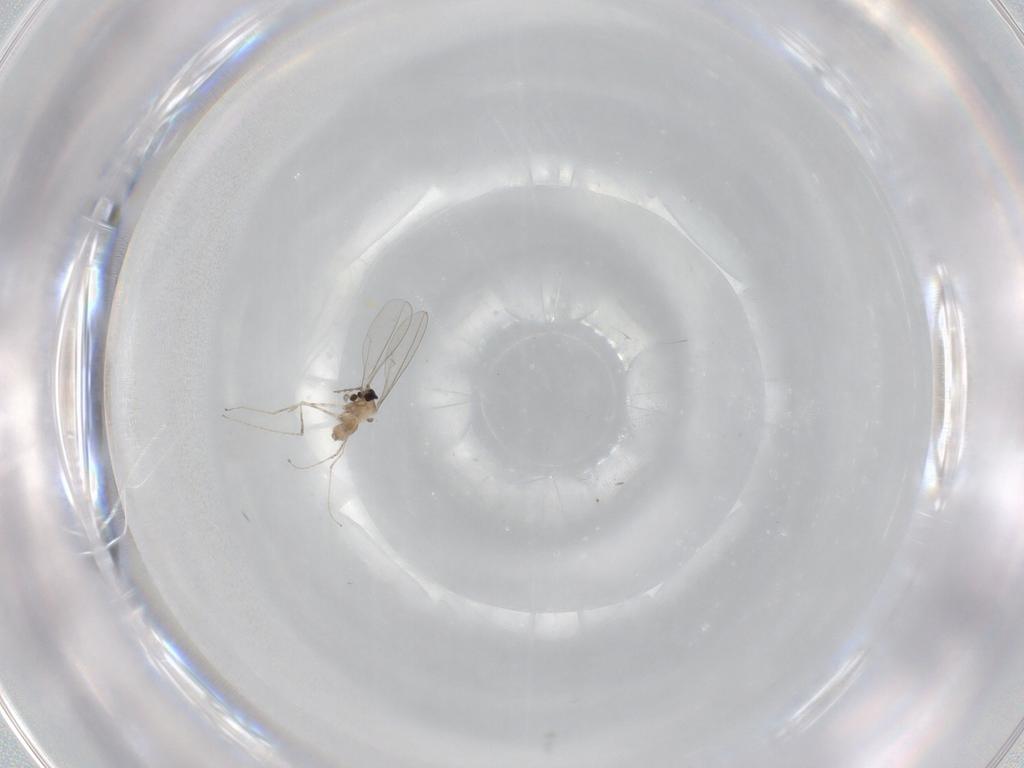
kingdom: Animalia
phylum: Arthropoda
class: Insecta
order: Diptera
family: Cecidomyiidae
